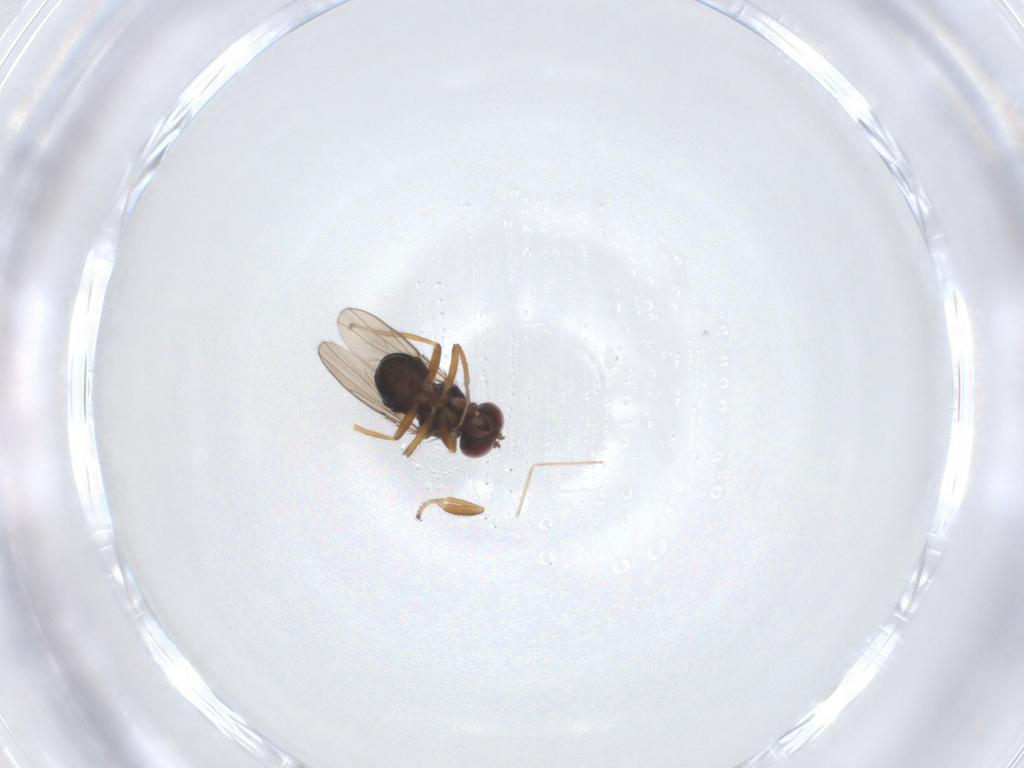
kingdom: Animalia
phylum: Arthropoda
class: Insecta
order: Diptera
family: Ephydridae
